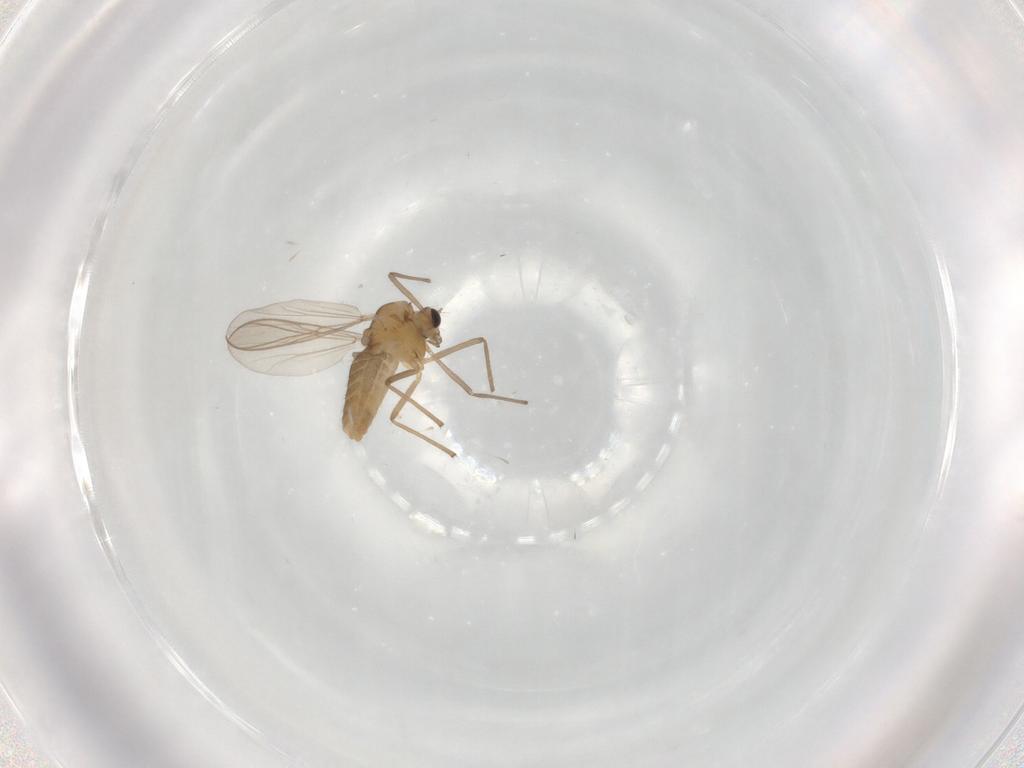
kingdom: Animalia
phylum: Arthropoda
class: Insecta
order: Diptera
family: Chironomidae
